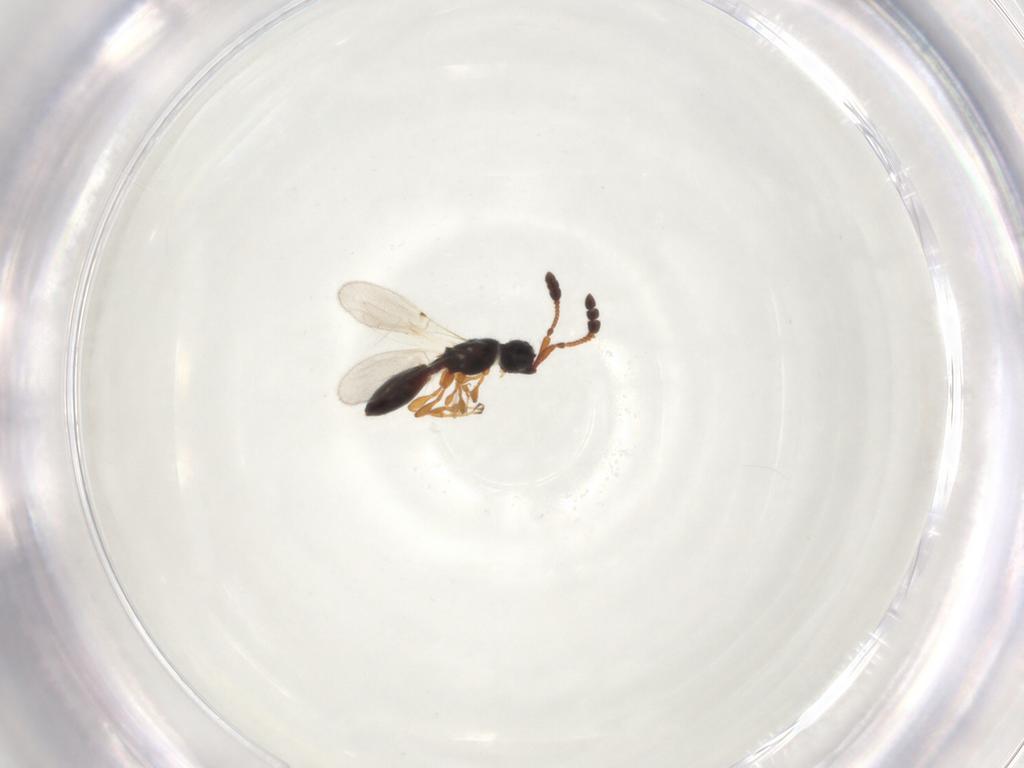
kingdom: Animalia
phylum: Arthropoda
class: Insecta
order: Hymenoptera
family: Diapriidae
